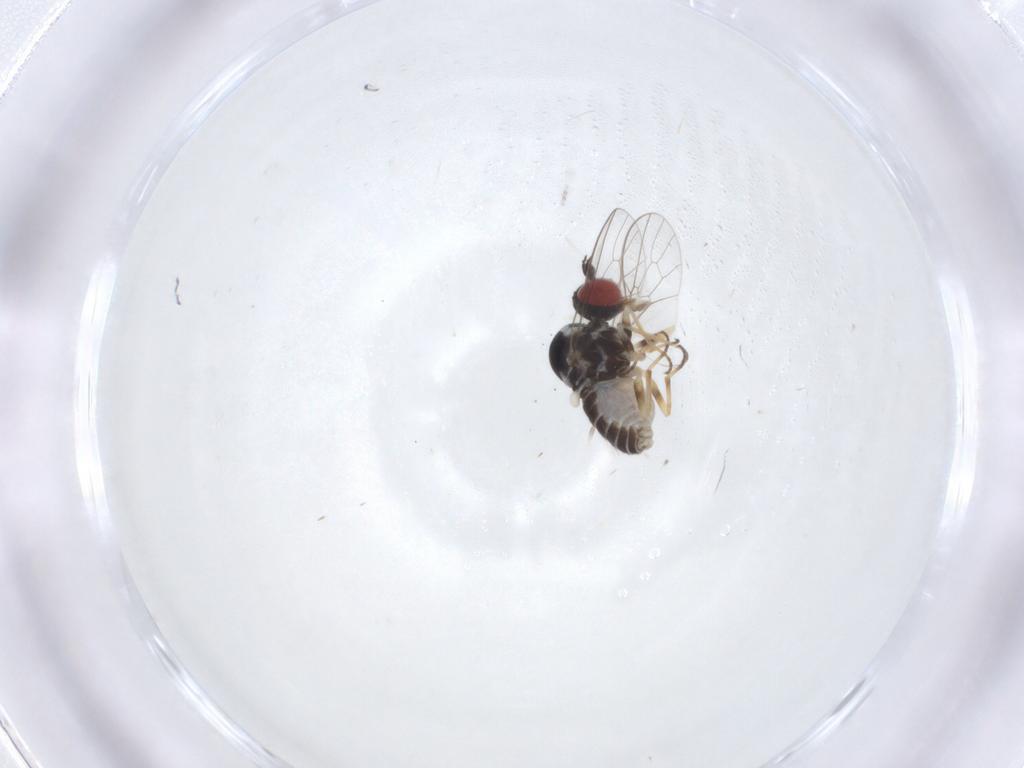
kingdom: Animalia
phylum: Arthropoda
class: Insecta
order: Diptera
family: Bombyliidae
